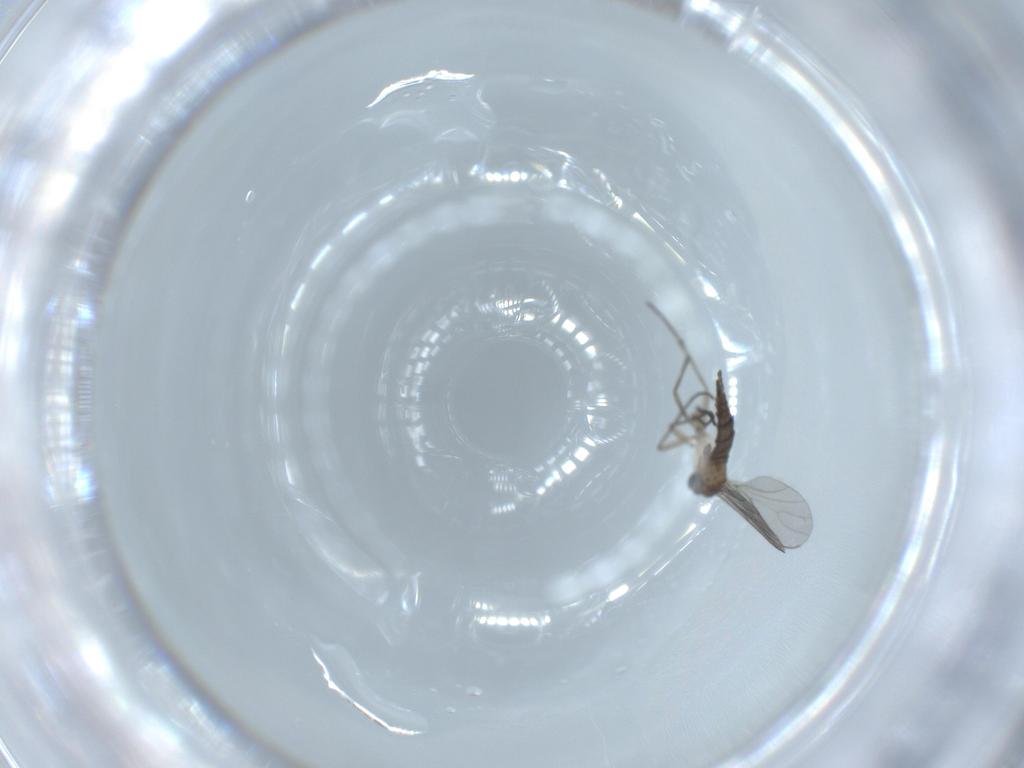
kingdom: Animalia
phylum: Arthropoda
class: Insecta
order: Diptera
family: Sciaridae
